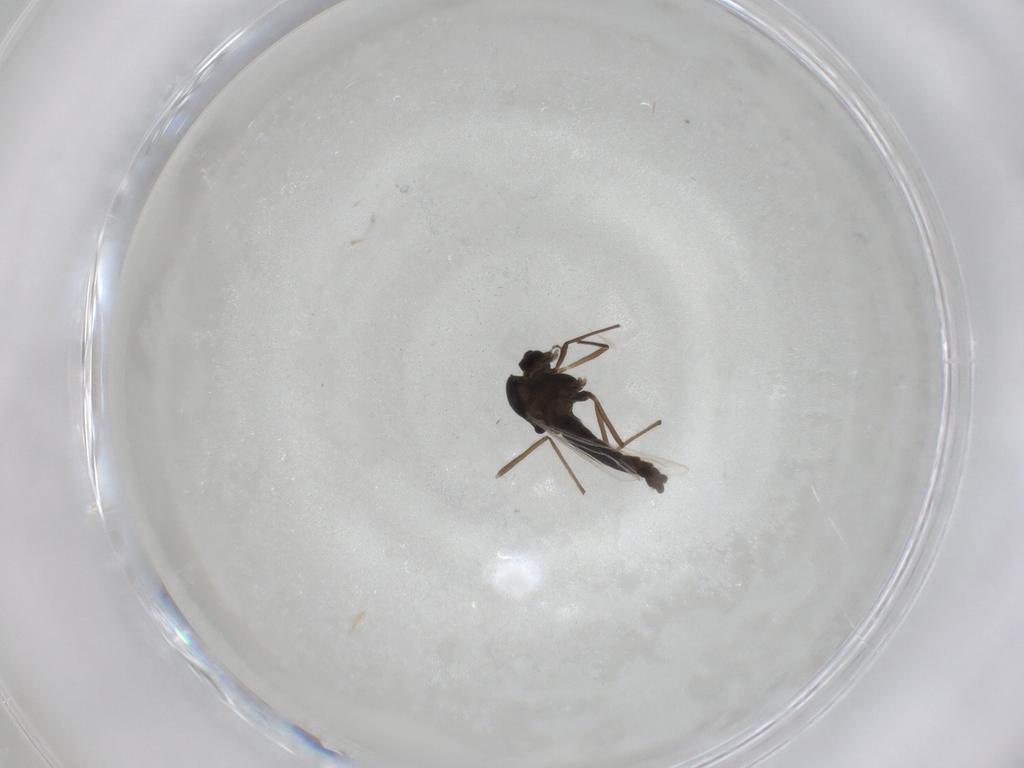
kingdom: Animalia
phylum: Arthropoda
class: Insecta
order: Diptera
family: Chironomidae
